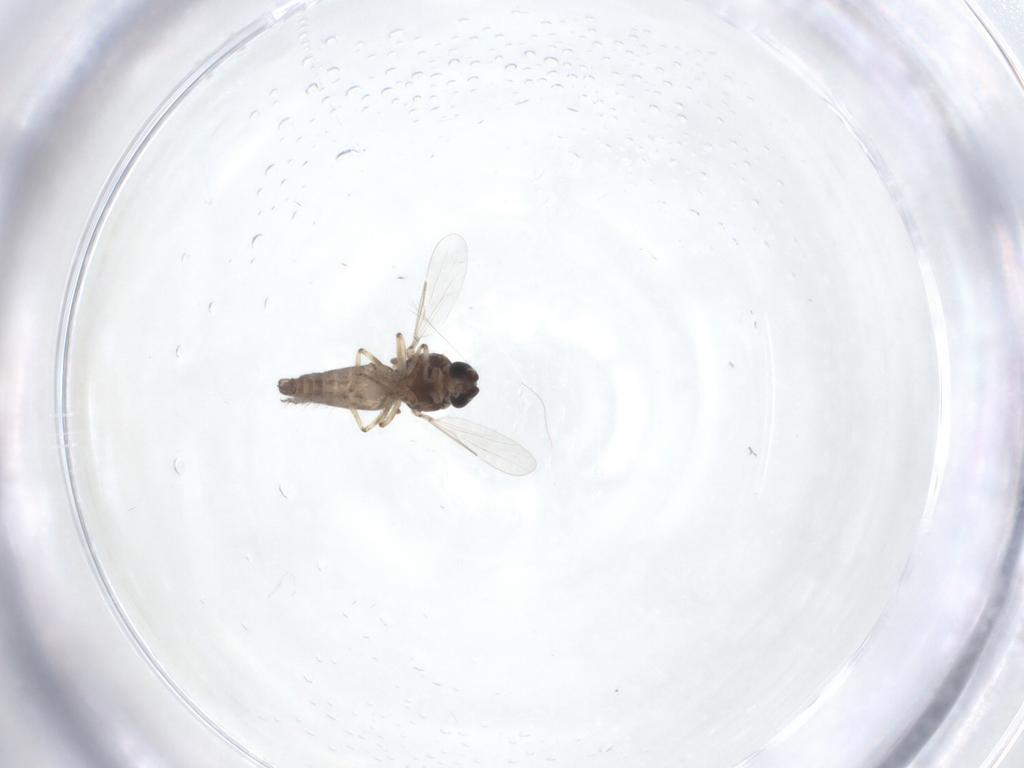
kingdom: Animalia
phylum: Arthropoda
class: Insecta
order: Diptera
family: Ceratopogonidae
